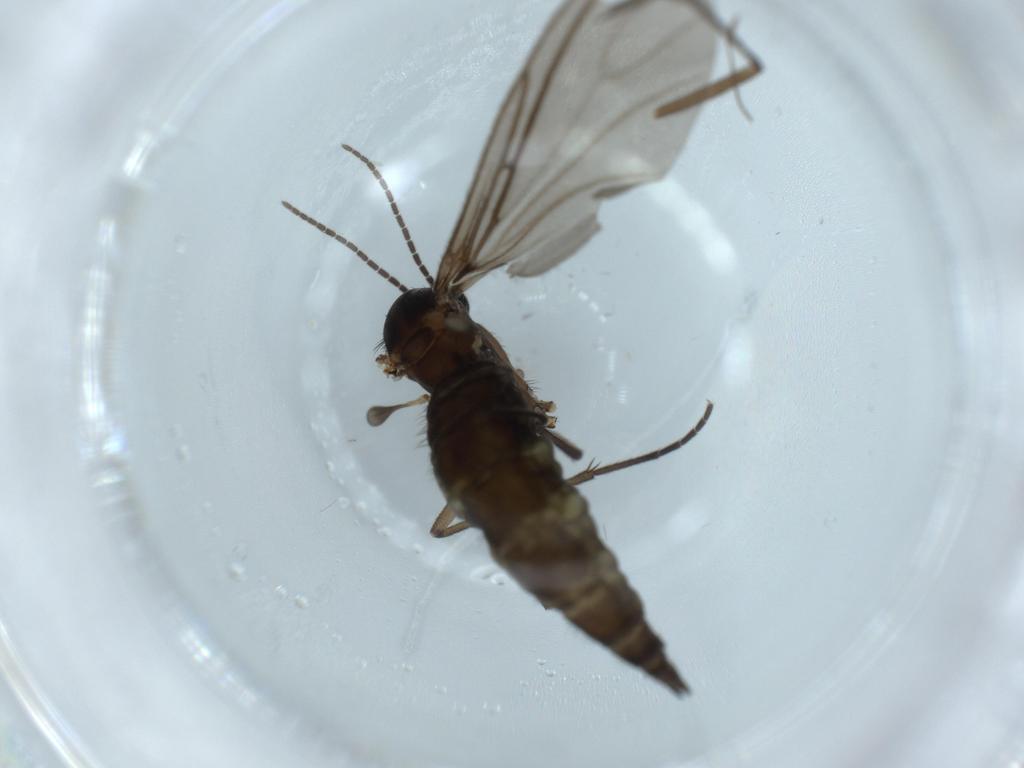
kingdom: Animalia
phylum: Arthropoda
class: Insecta
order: Diptera
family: Sciaridae
